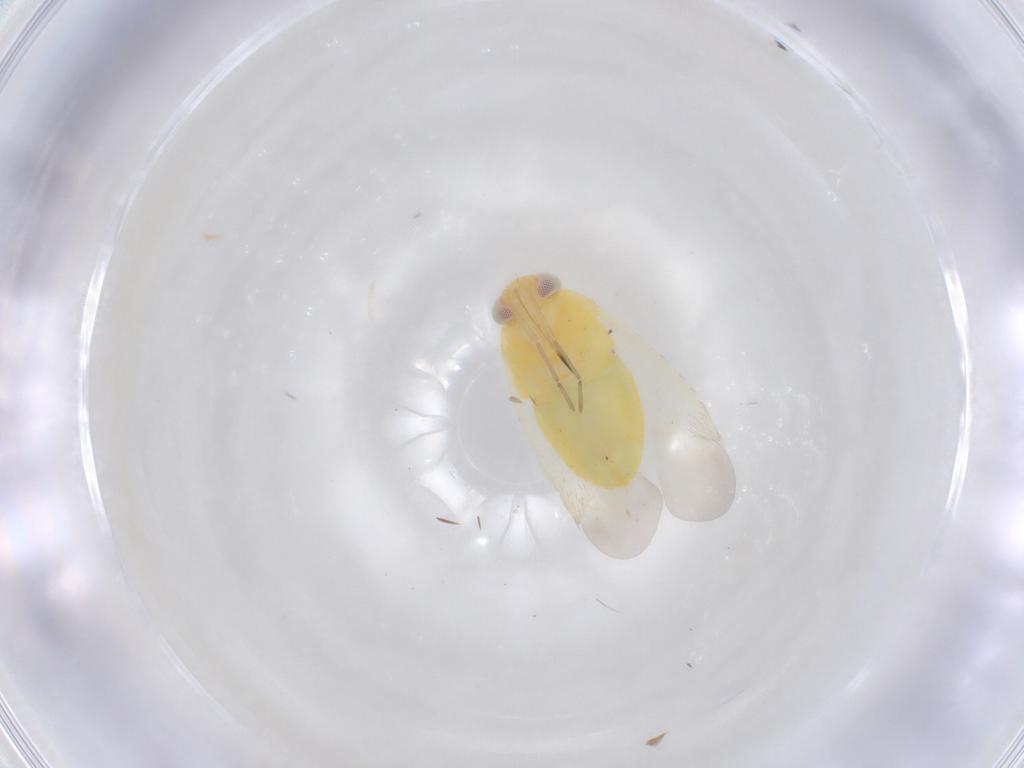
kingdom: Animalia
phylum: Arthropoda
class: Insecta
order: Hemiptera
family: Miridae
